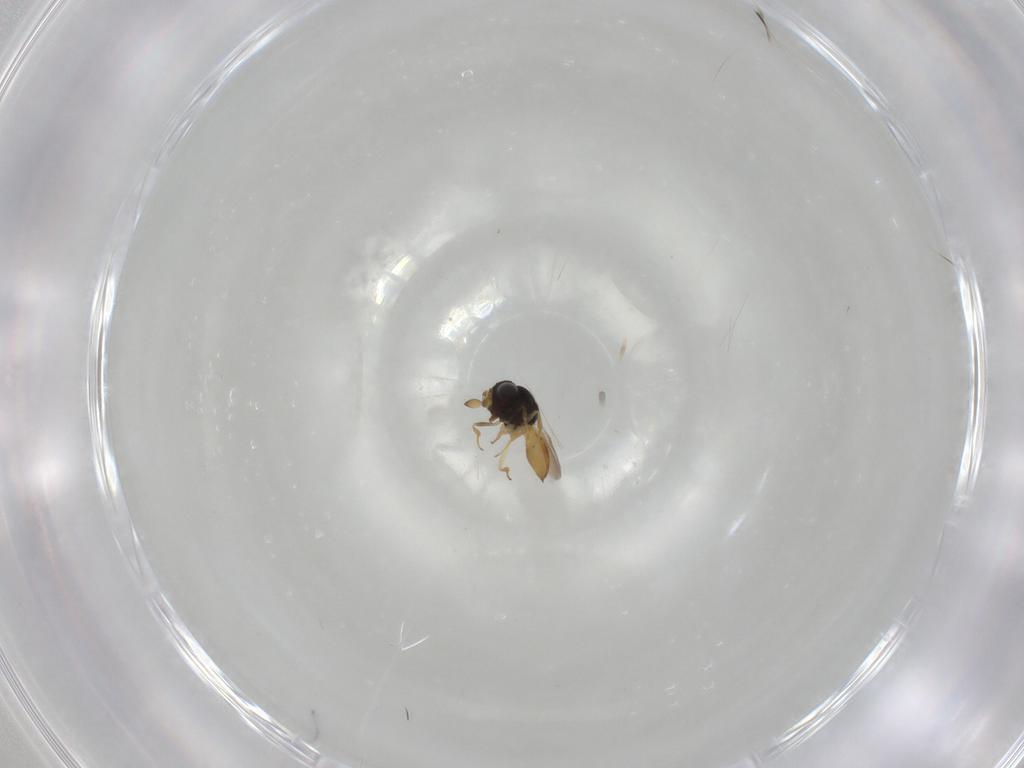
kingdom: Animalia
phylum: Arthropoda
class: Insecta
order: Hymenoptera
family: Scelionidae
